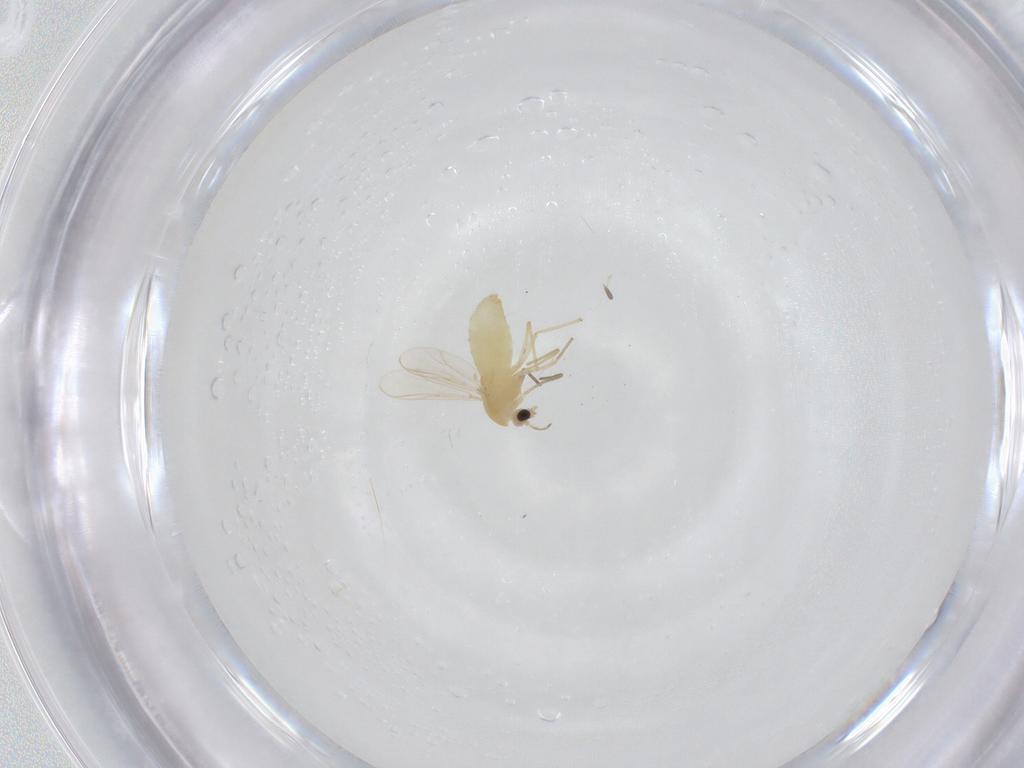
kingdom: Animalia
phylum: Arthropoda
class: Insecta
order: Diptera
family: Sciaridae
